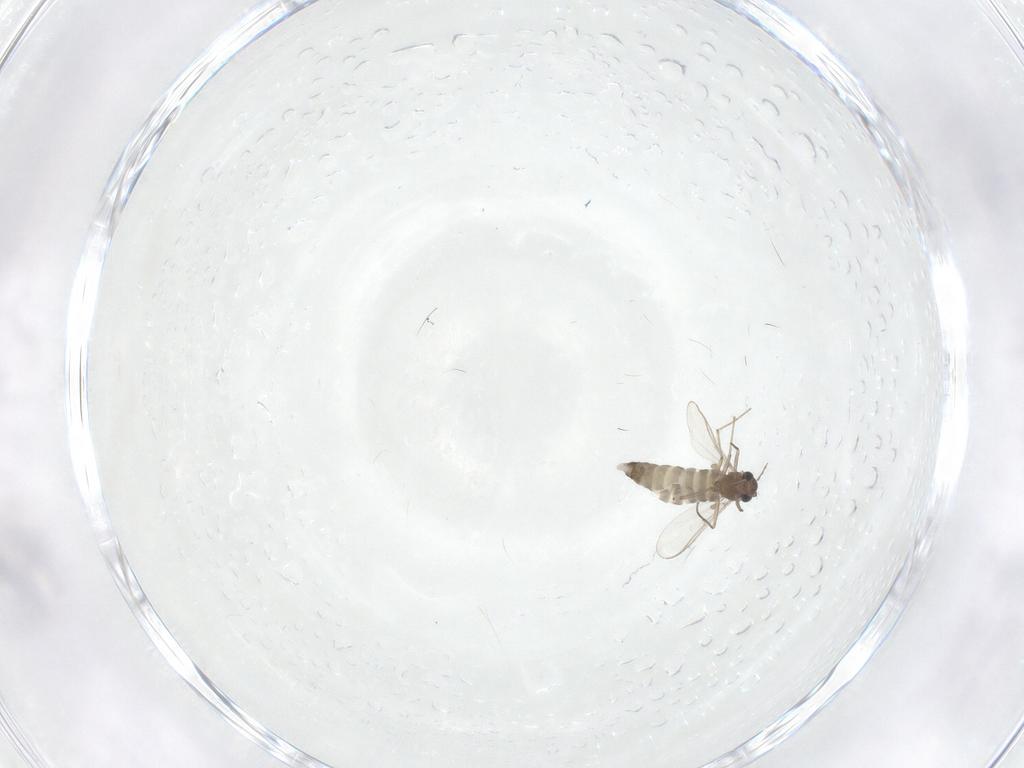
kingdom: Animalia
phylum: Arthropoda
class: Insecta
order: Diptera
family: Chironomidae
